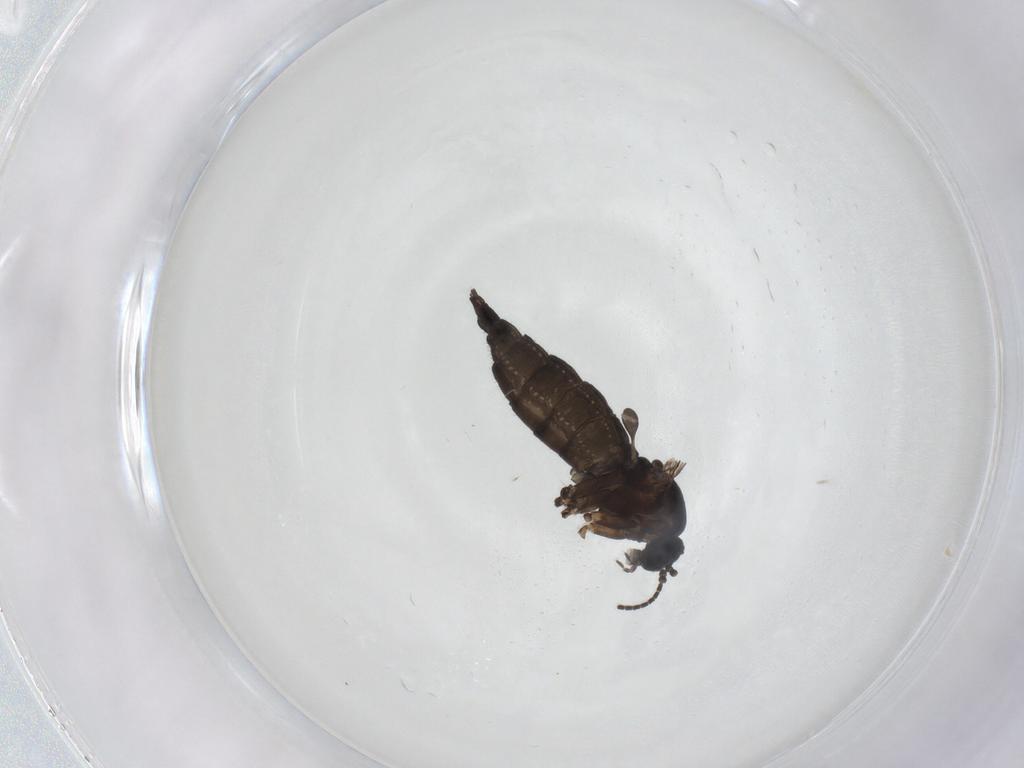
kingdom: Animalia
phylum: Arthropoda
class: Insecta
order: Diptera
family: Sciaridae
